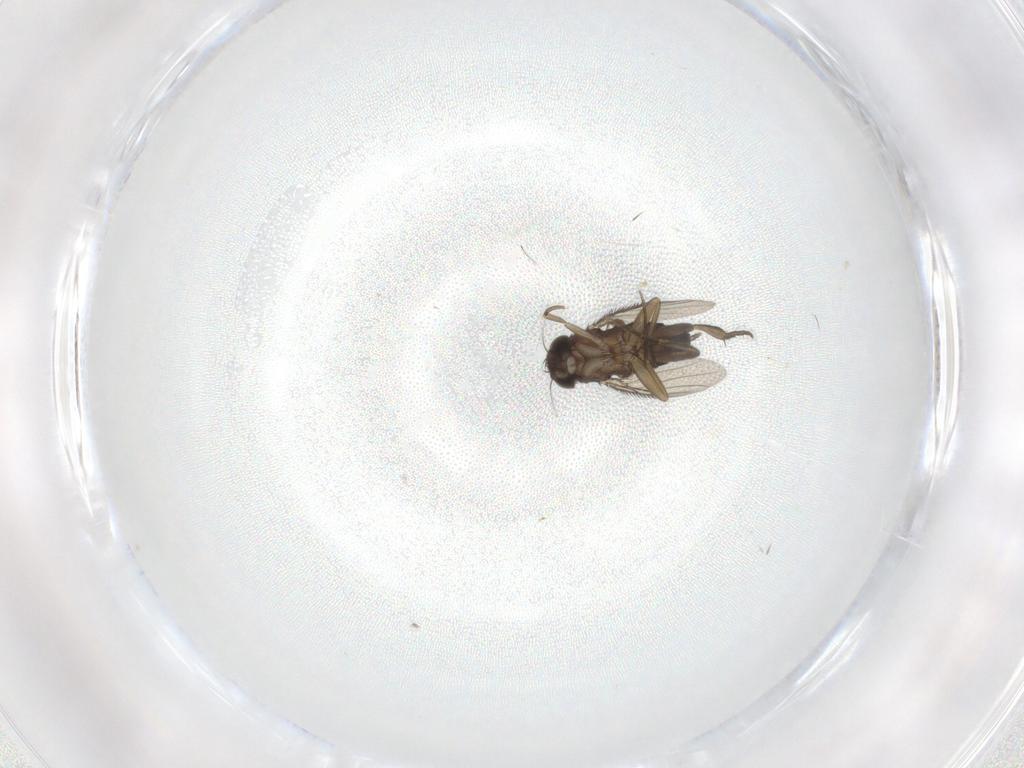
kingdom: Animalia
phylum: Arthropoda
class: Insecta
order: Diptera
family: Phoridae
